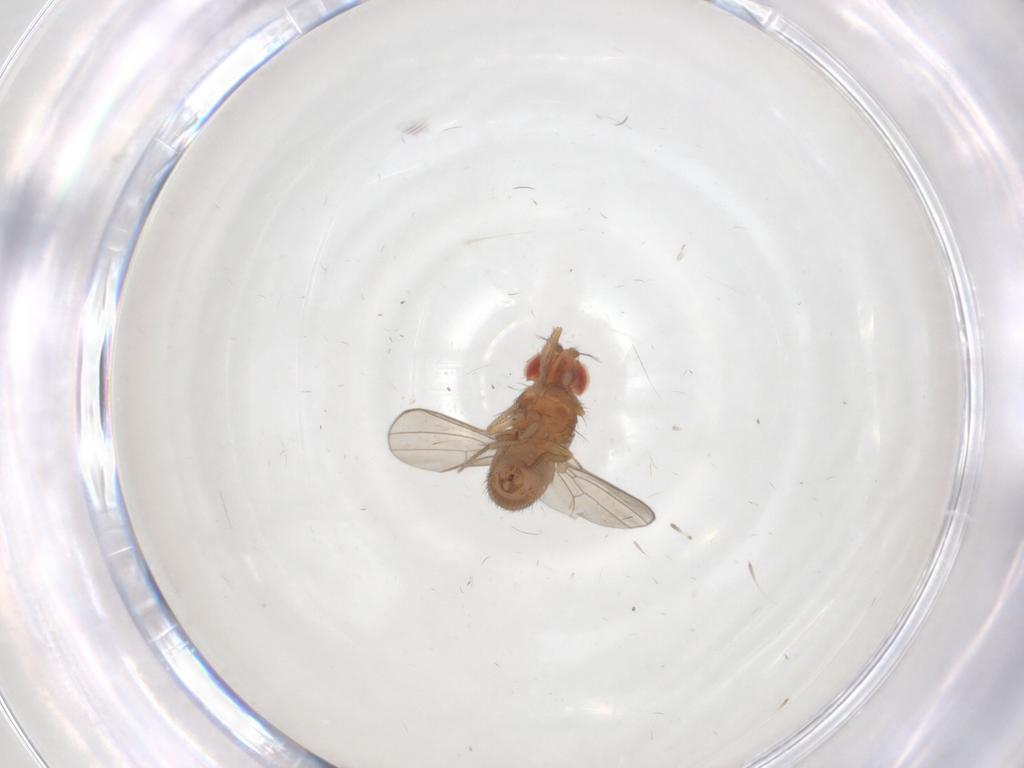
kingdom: Animalia
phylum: Arthropoda
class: Insecta
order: Diptera
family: Drosophilidae
